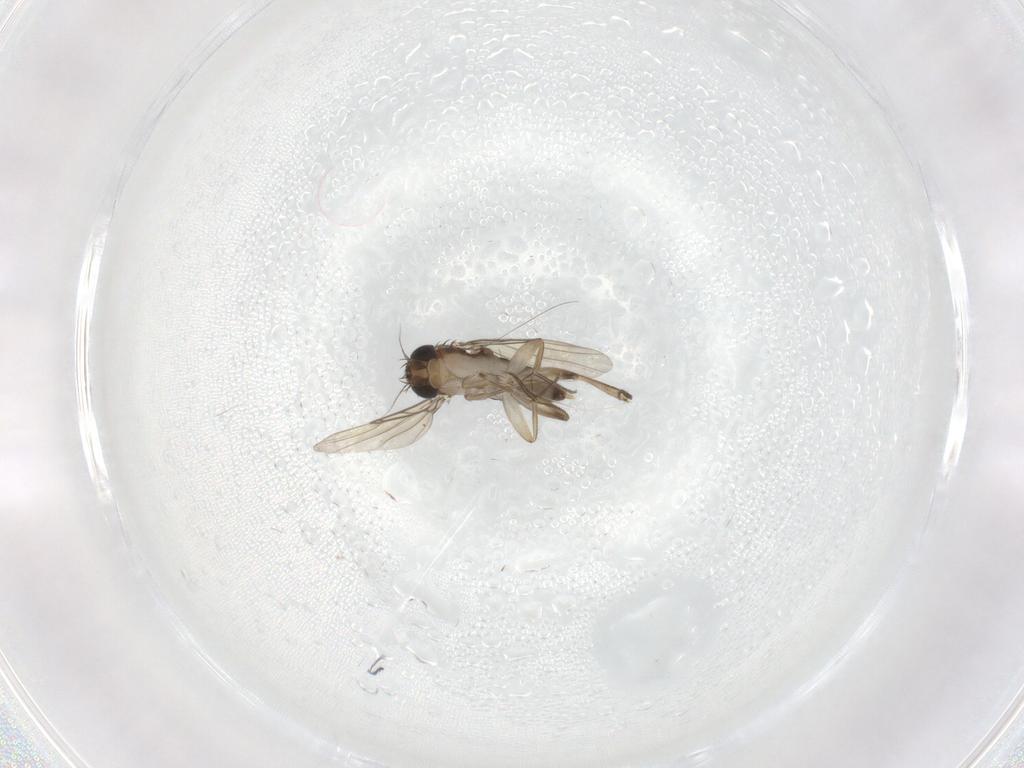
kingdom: Animalia
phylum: Arthropoda
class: Insecta
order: Diptera
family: Phoridae
